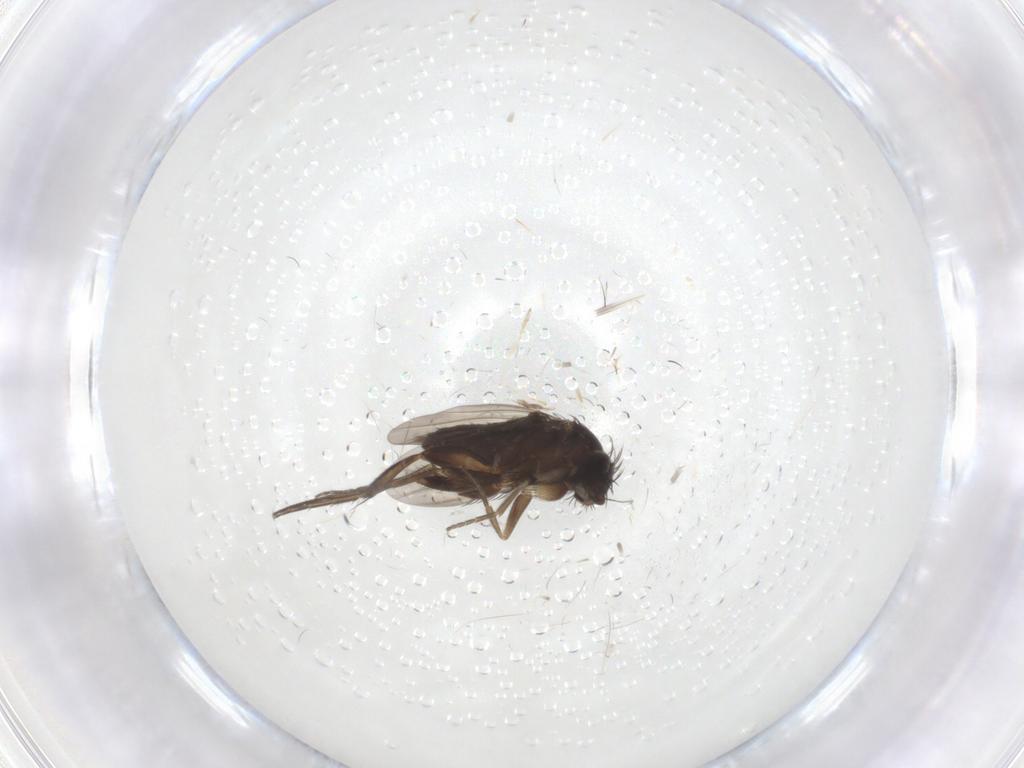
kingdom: Animalia
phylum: Arthropoda
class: Insecta
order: Diptera
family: Phoridae
